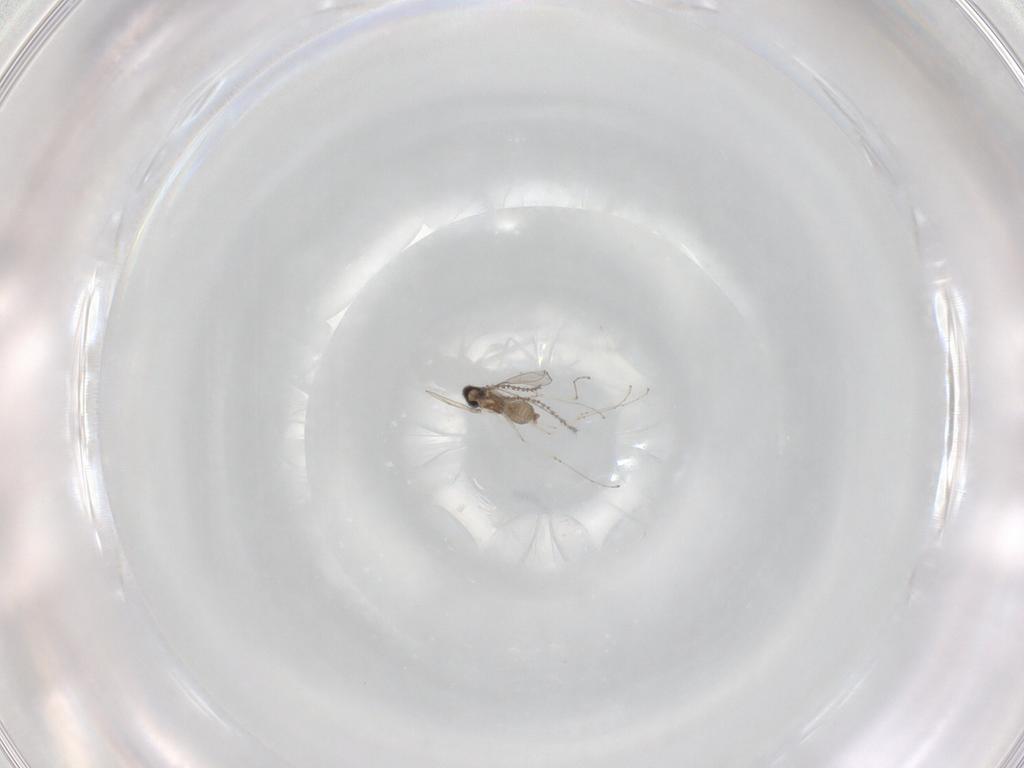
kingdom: Animalia
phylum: Arthropoda
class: Insecta
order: Diptera
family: Cecidomyiidae
